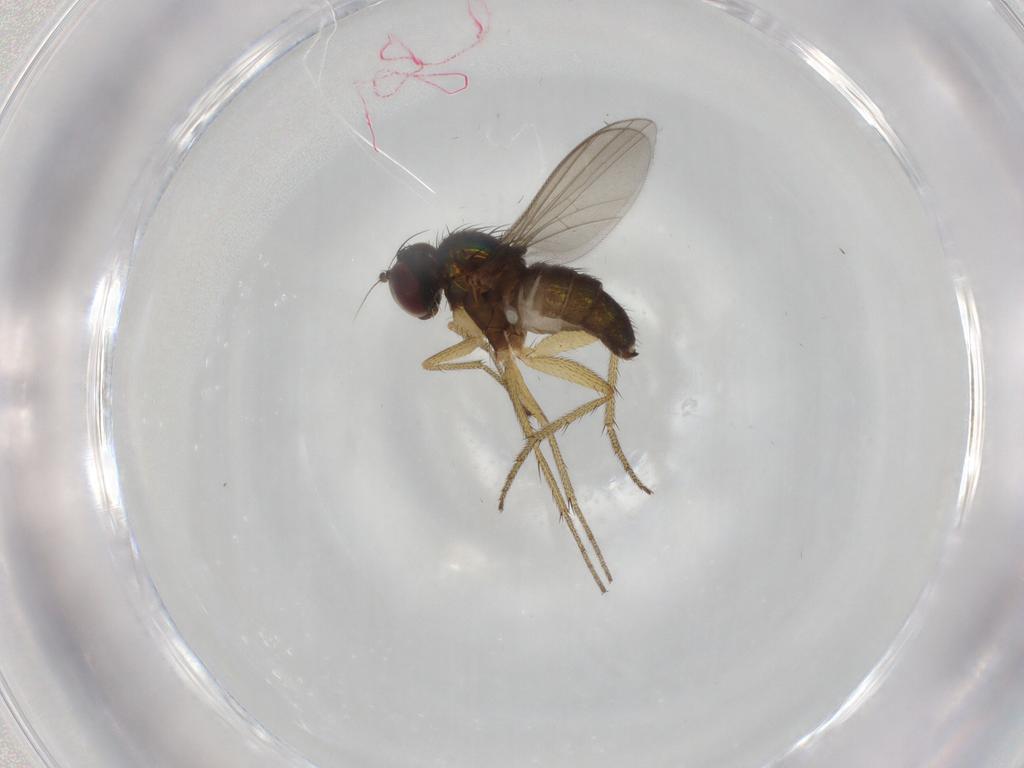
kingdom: Animalia
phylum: Arthropoda
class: Insecta
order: Diptera
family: Dolichopodidae
